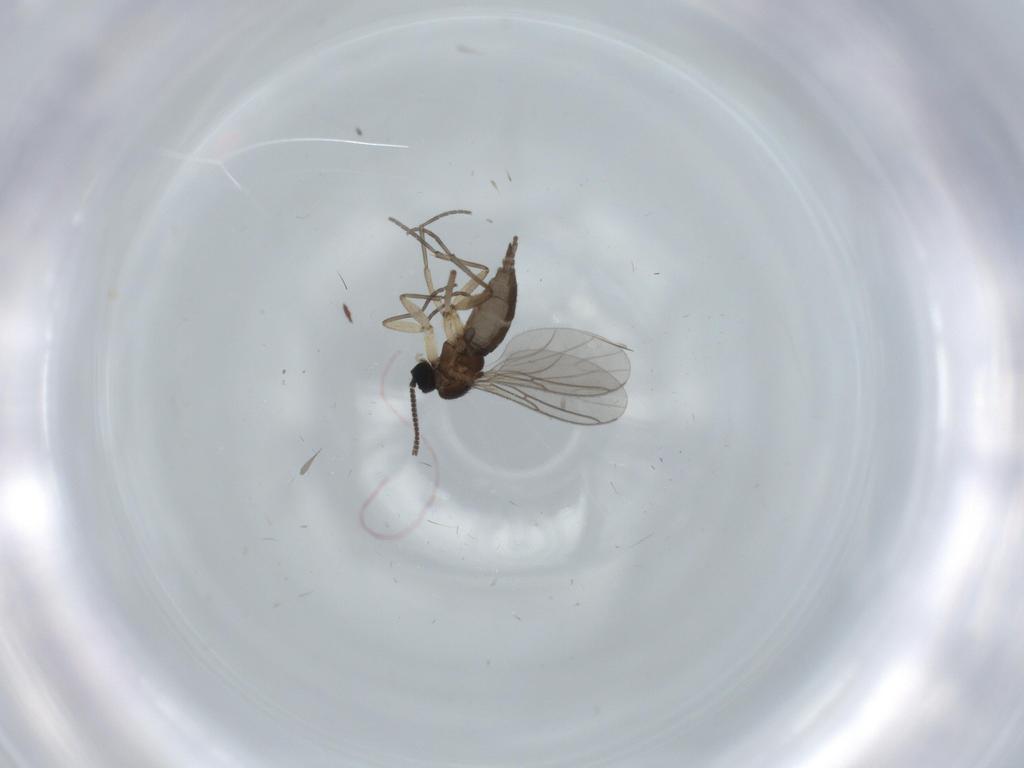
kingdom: Animalia
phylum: Arthropoda
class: Insecta
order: Diptera
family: Sciaridae
